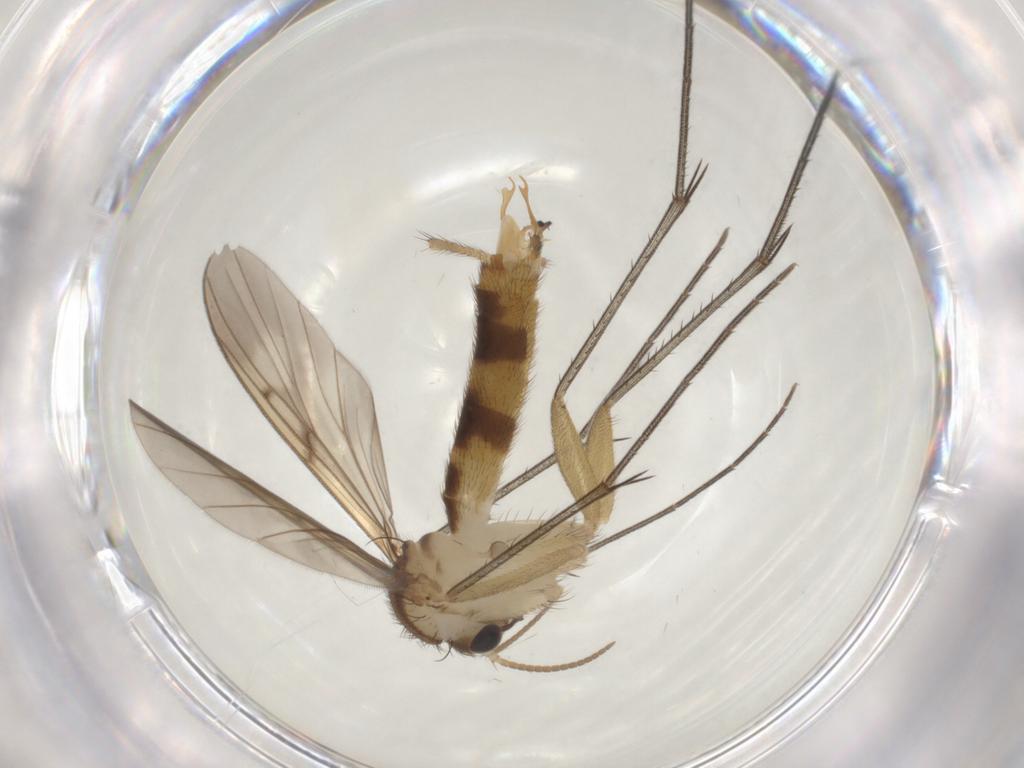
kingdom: Animalia
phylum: Arthropoda
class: Insecta
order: Diptera
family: Mycetophilidae
